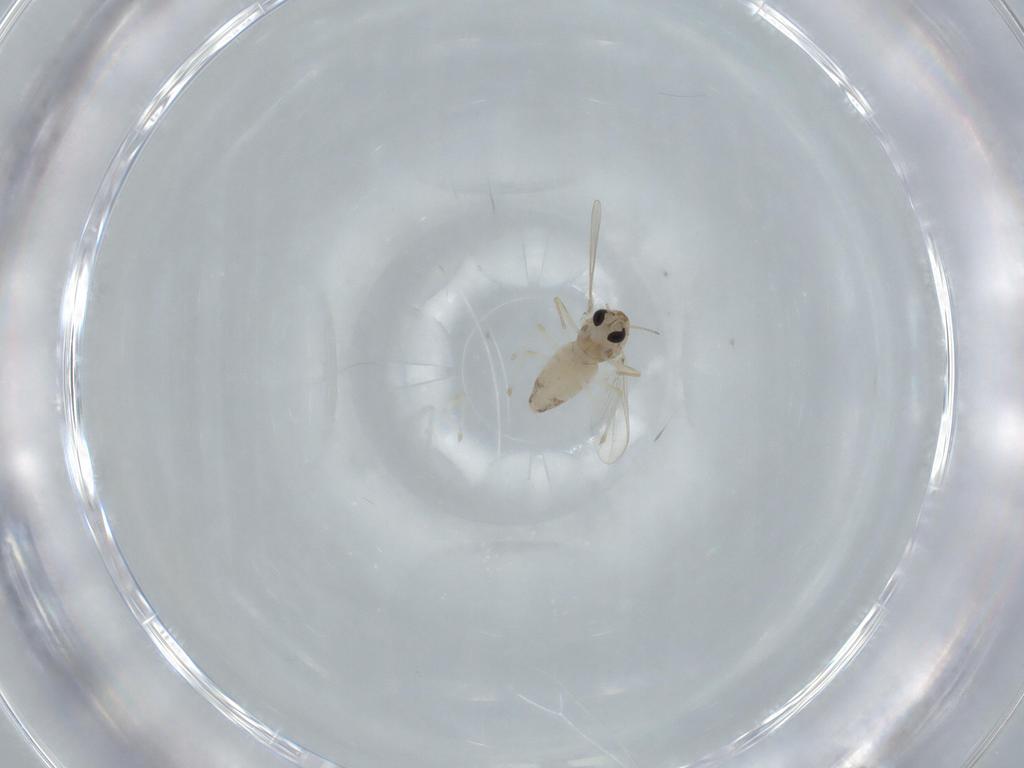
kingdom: Animalia
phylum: Arthropoda
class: Insecta
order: Diptera
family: Chironomidae
